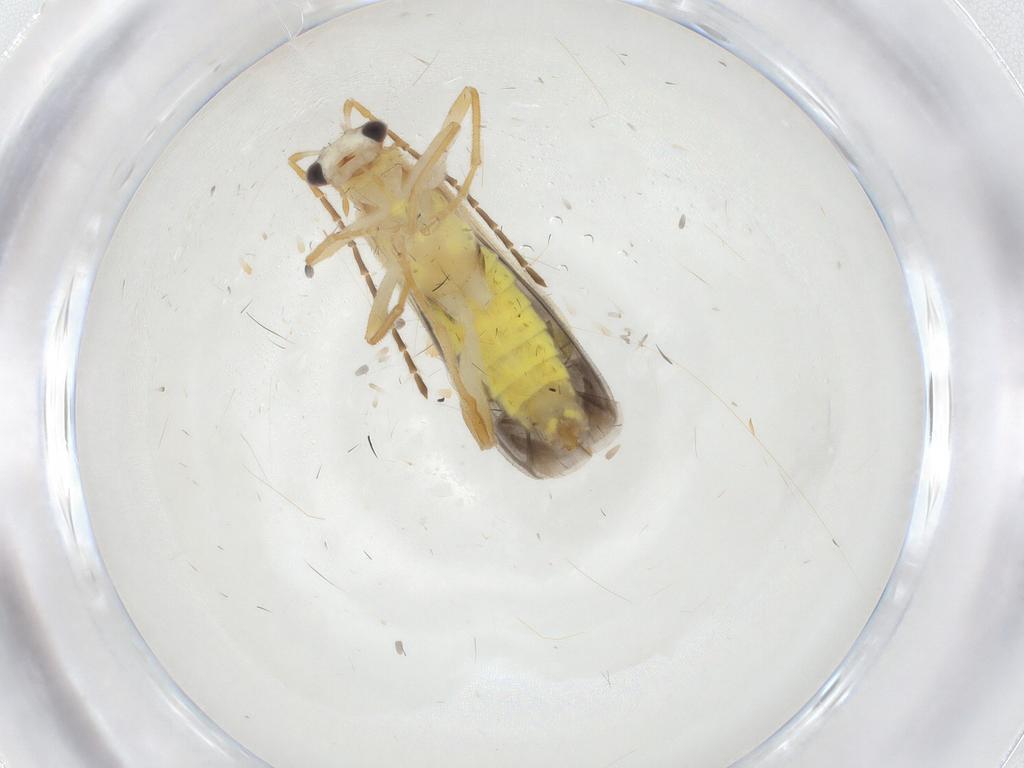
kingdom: Animalia
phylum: Arthropoda
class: Insecta
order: Coleoptera
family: Cantharidae
